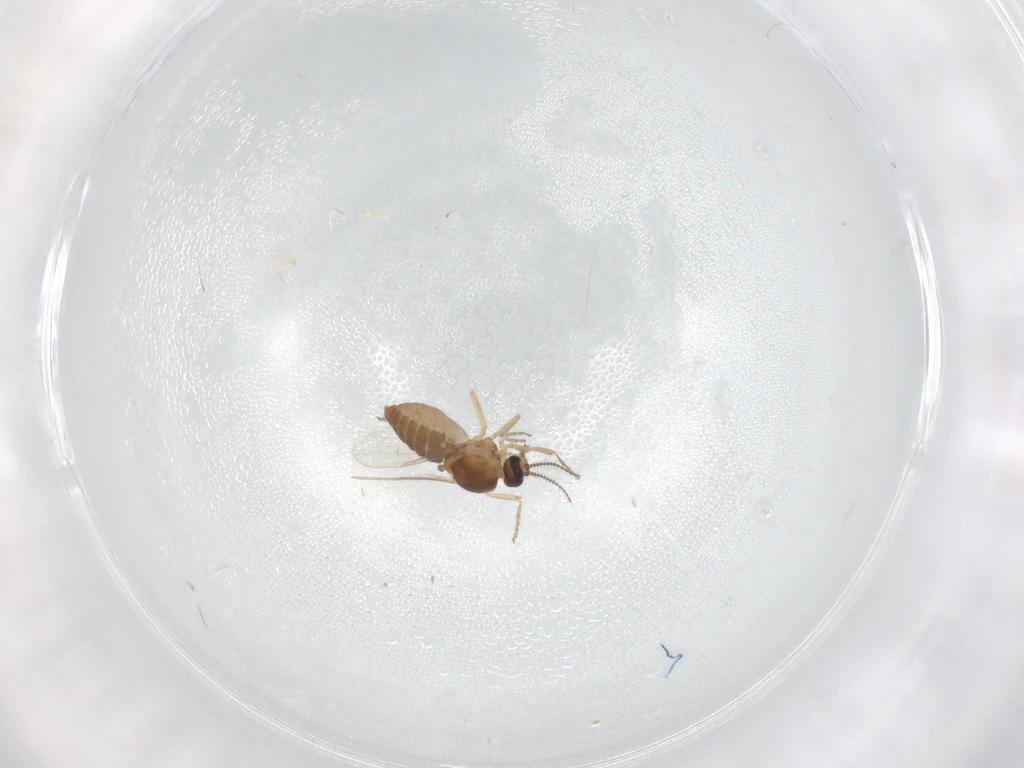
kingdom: Animalia
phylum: Arthropoda
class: Insecta
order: Diptera
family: Ceratopogonidae
